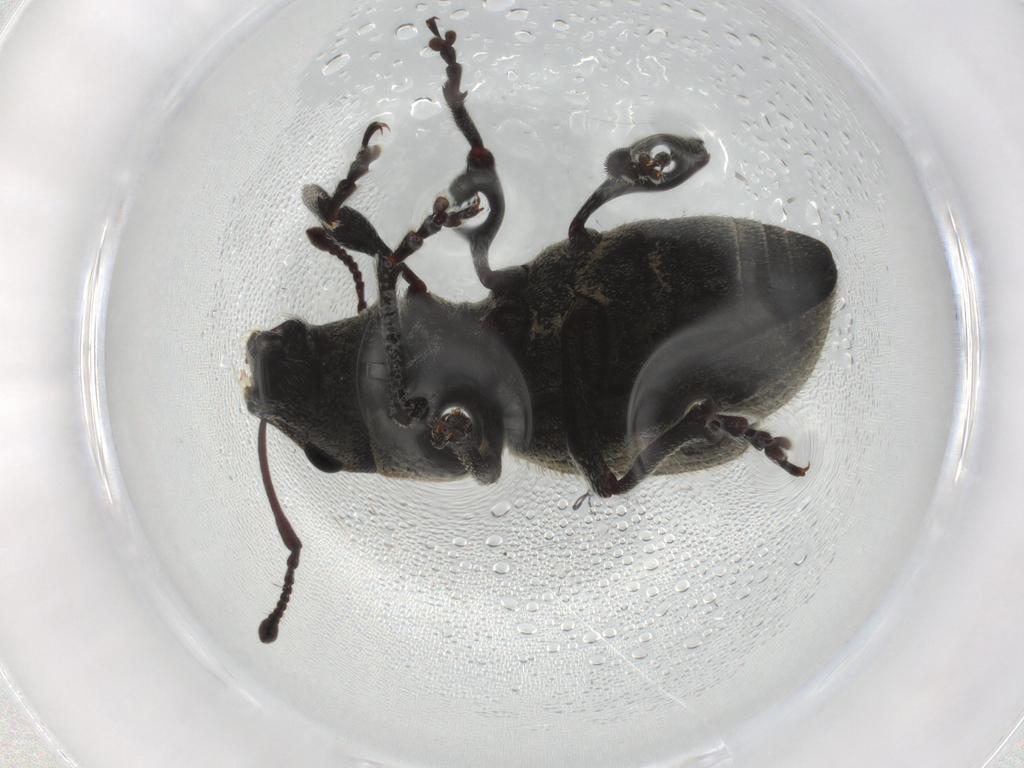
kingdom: Animalia
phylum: Arthropoda
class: Insecta
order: Coleoptera
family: Curculionidae
